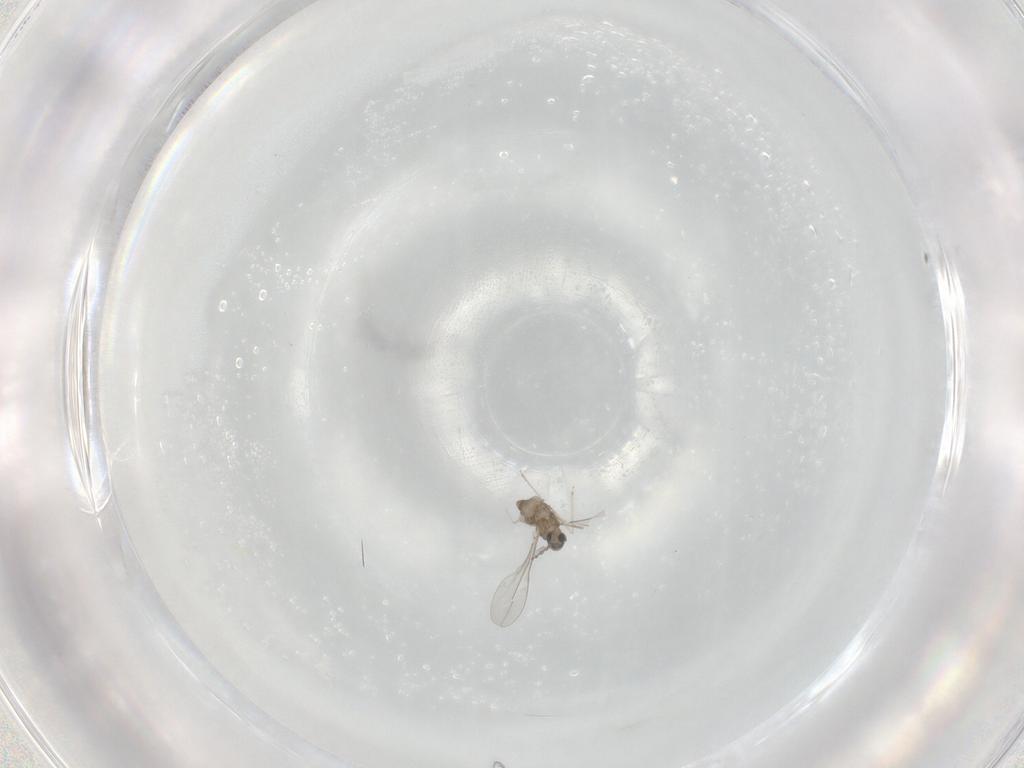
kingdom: Animalia
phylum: Arthropoda
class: Insecta
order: Diptera
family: Cecidomyiidae
